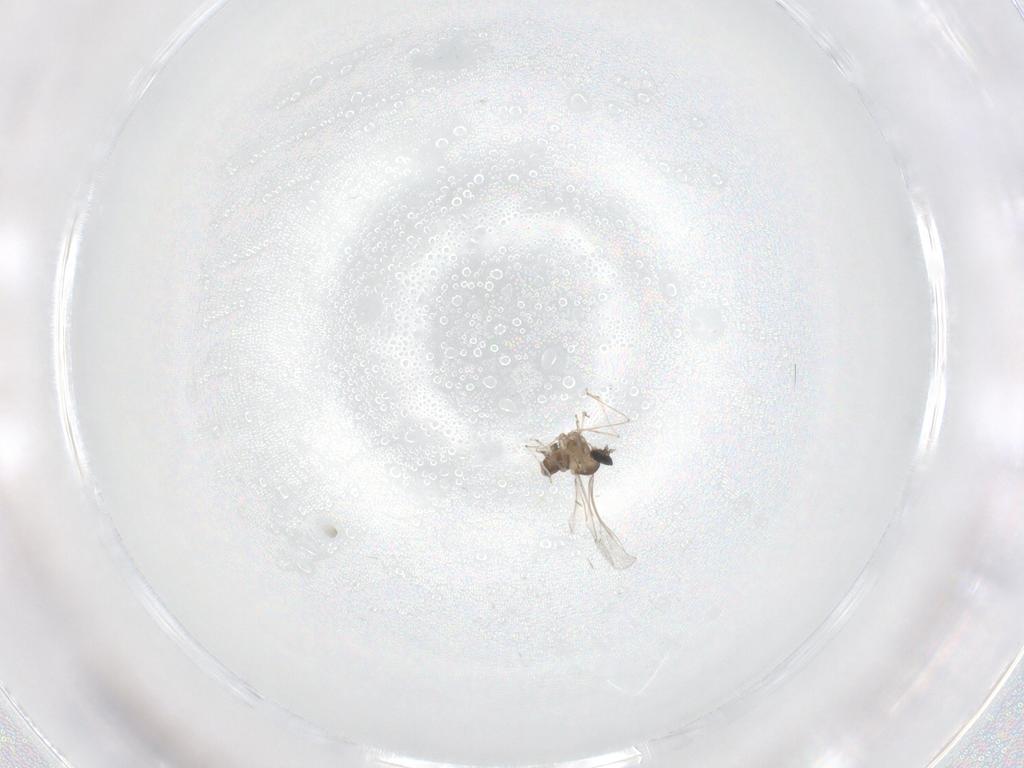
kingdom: Animalia
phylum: Arthropoda
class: Insecta
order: Diptera
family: Cecidomyiidae
